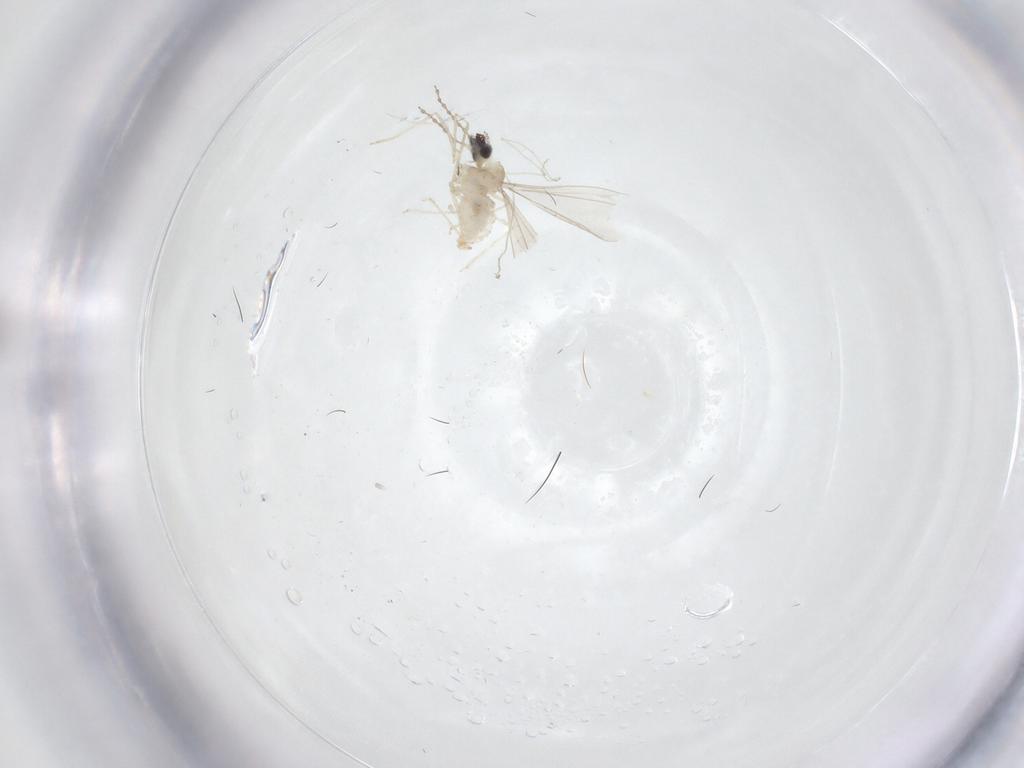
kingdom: Animalia
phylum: Arthropoda
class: Insecta
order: Diptera
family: Cecidomyiidae
